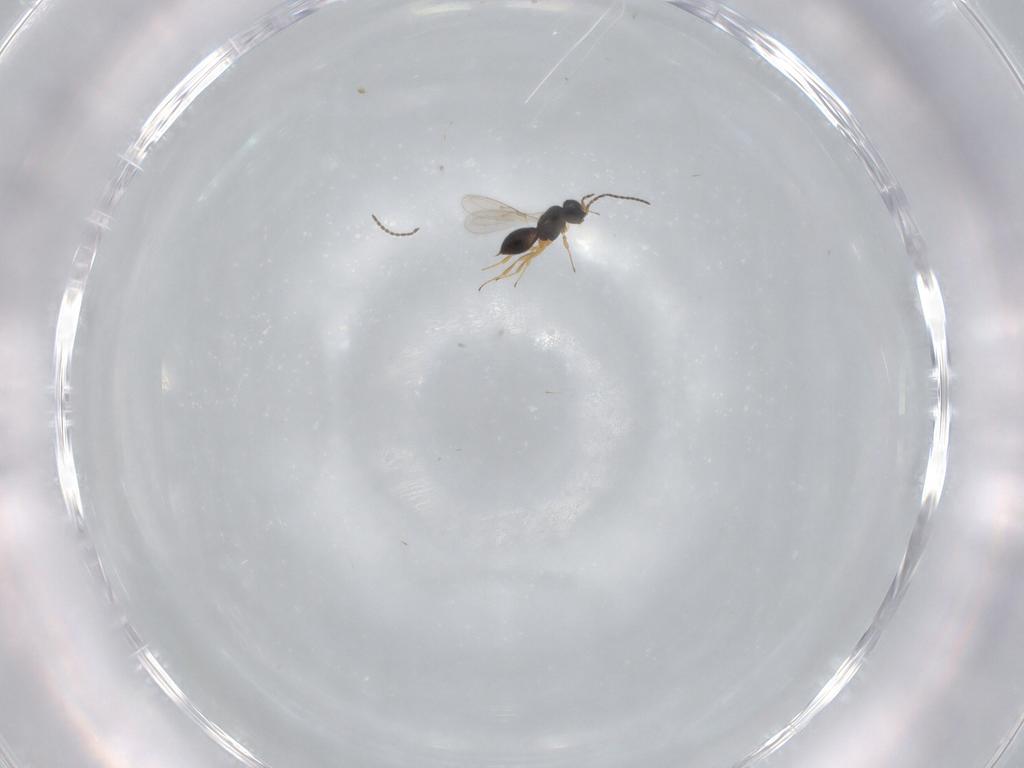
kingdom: Animalia
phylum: Arthropoda
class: Insecta
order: Hymenoptera
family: Scelionidae
